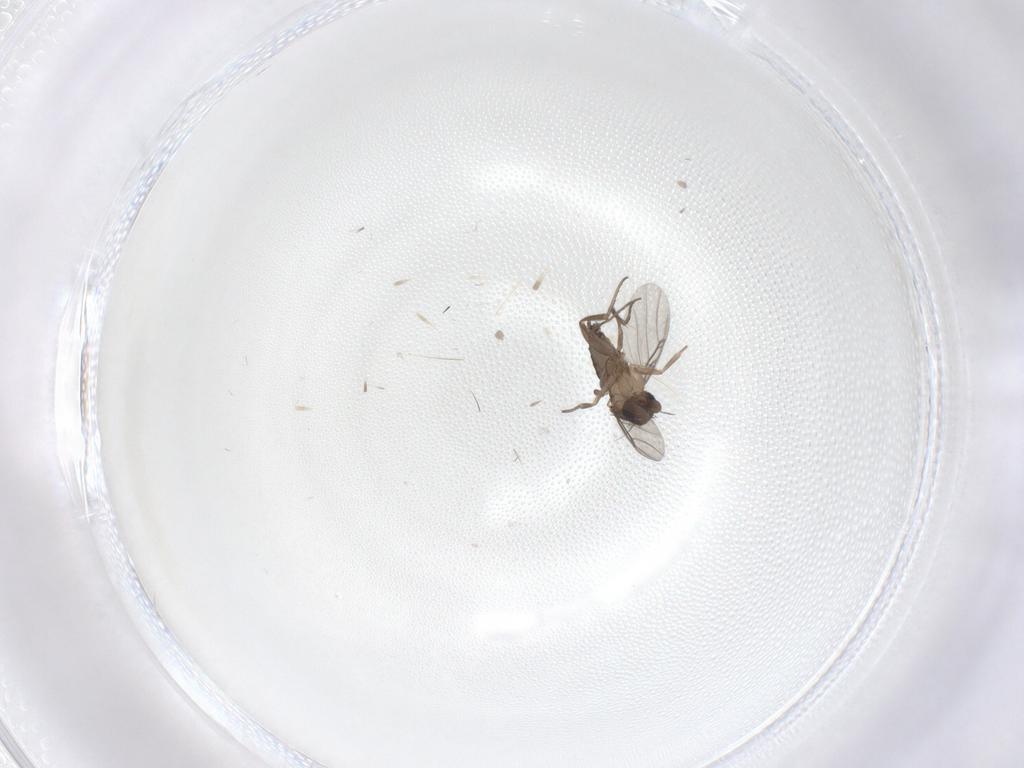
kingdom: Animalia
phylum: Arthropoda
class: Insecta
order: Diptera
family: Phoridae
